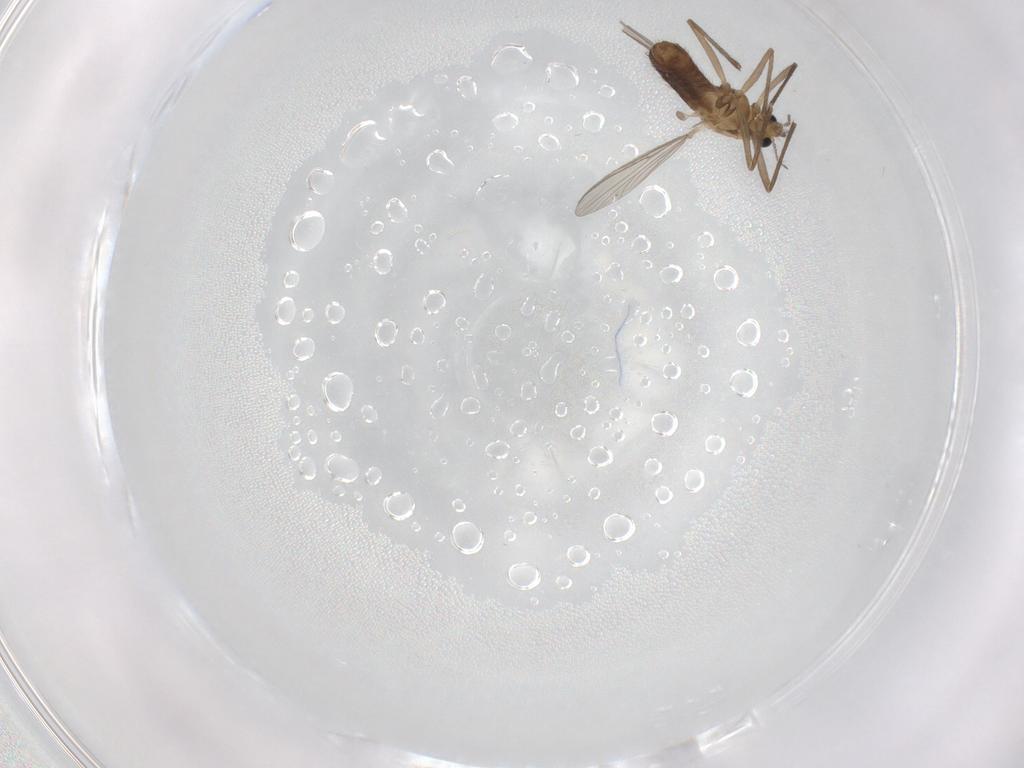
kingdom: Animalia
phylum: Arthropoda
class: Insecta
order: Diptera
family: Chironomidae
